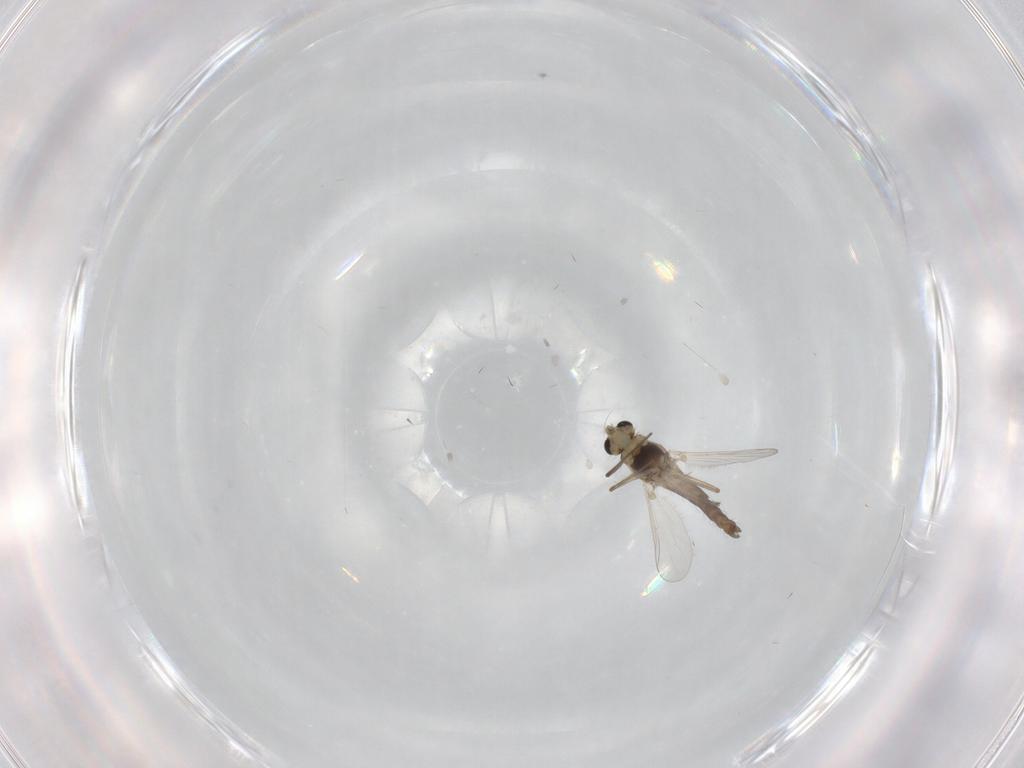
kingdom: Animalia
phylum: Arthropoda
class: Insecta
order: Diptera
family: Chironomidae
